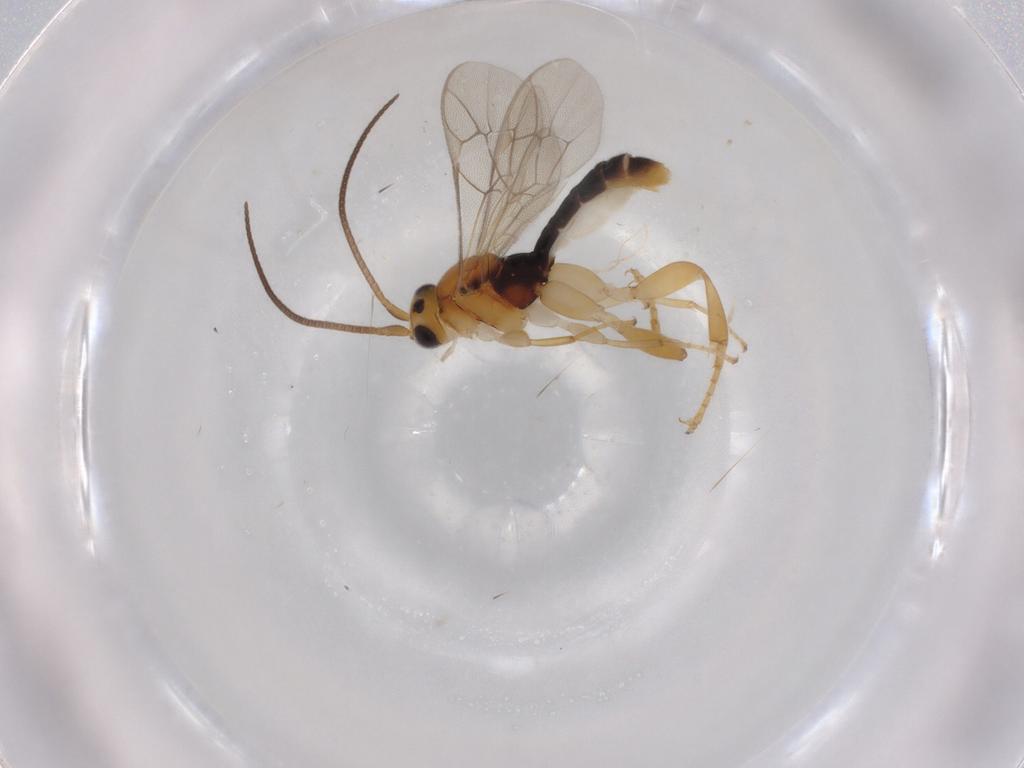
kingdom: Animalia
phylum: Arthropoda
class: Insecta
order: Hymenoptera
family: Ichneumonidae
